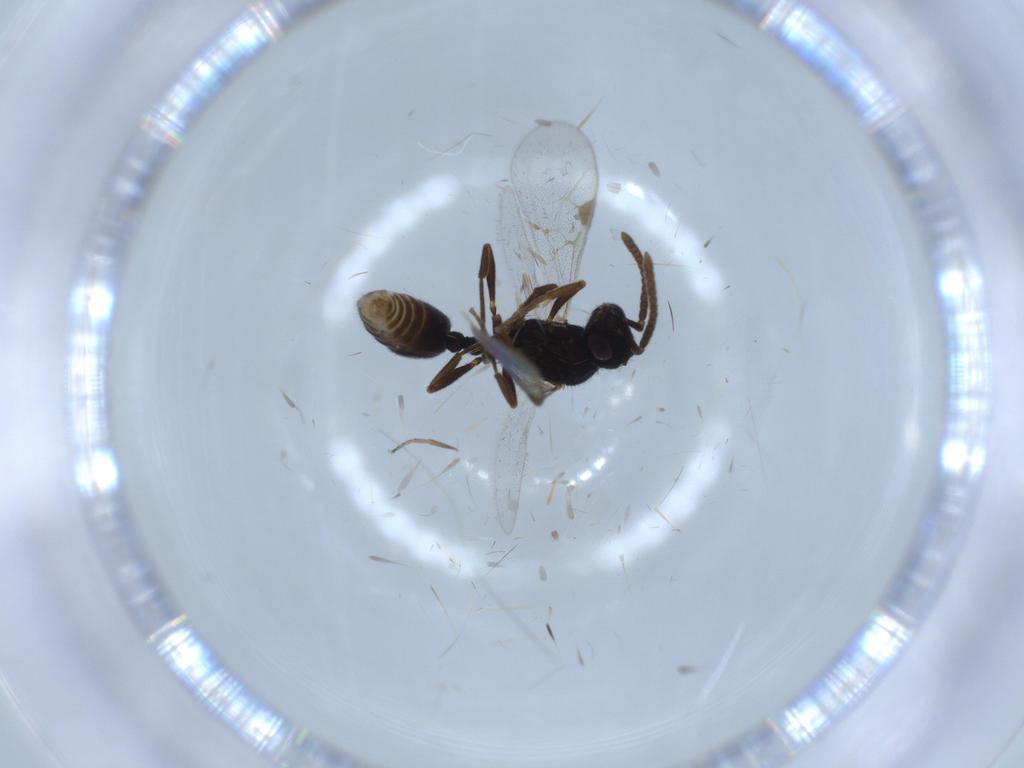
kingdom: Animalia
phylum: Arthropoda
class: Insecta
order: Hymenoptera
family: Formicidae
